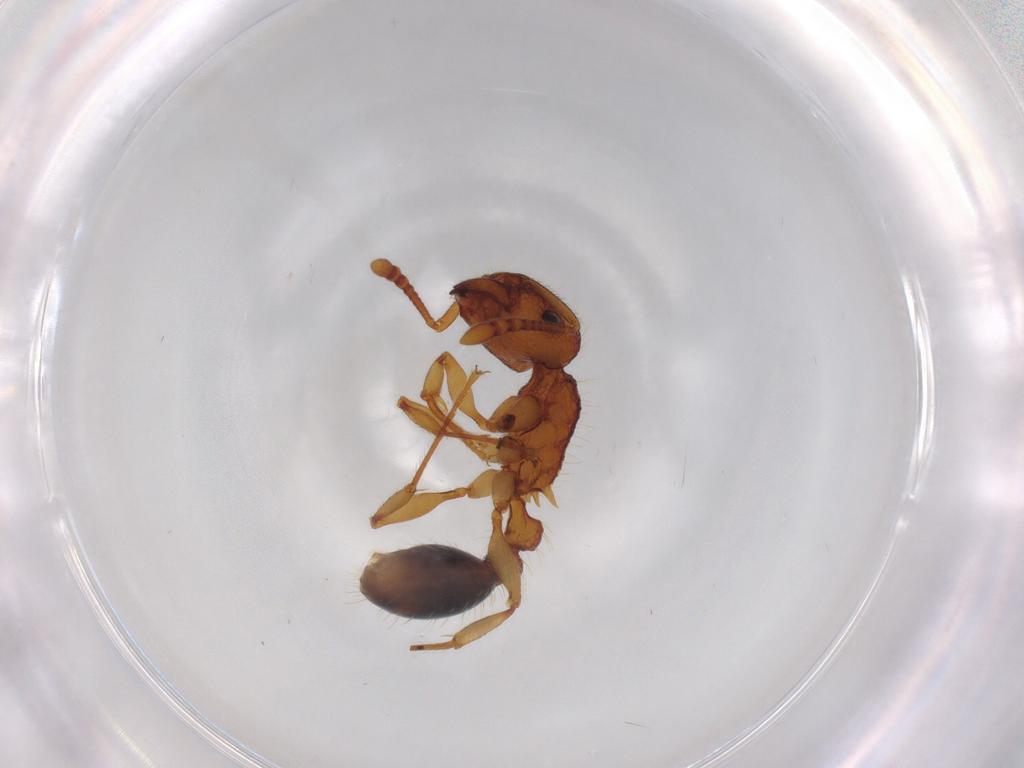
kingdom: Animalia
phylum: Arthropoda
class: Insecta
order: Hymenoptera
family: Formicidae
